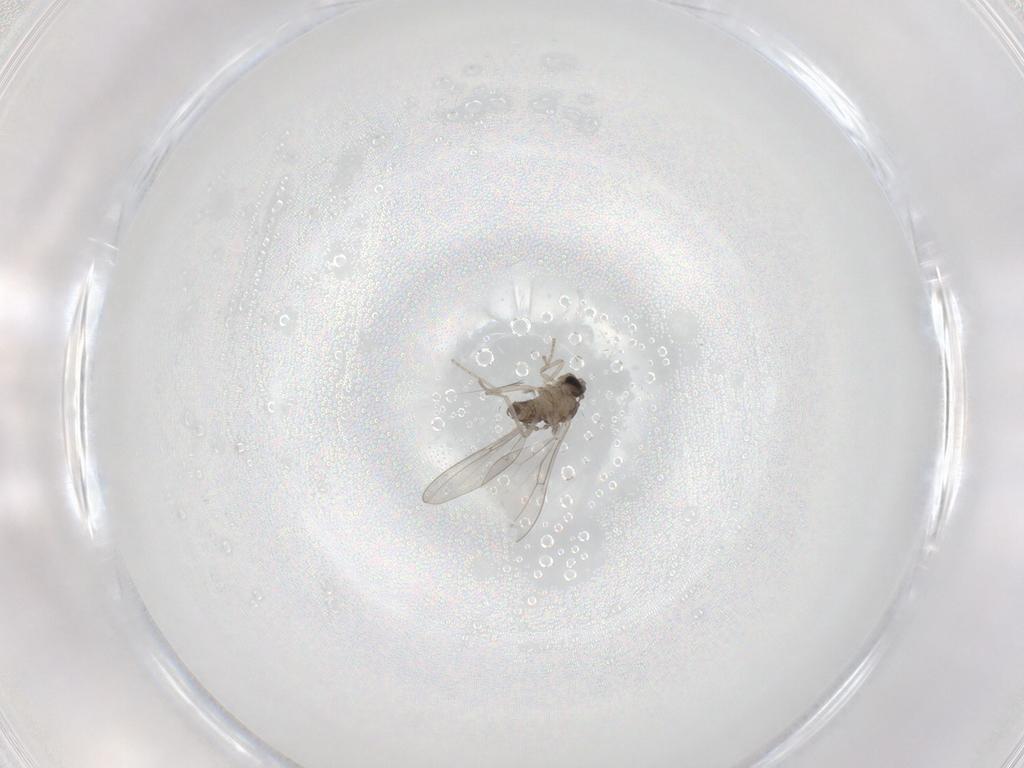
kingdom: Animalia
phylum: Arthropoda
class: Insecta
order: Diptera
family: Cecidomyiidae
